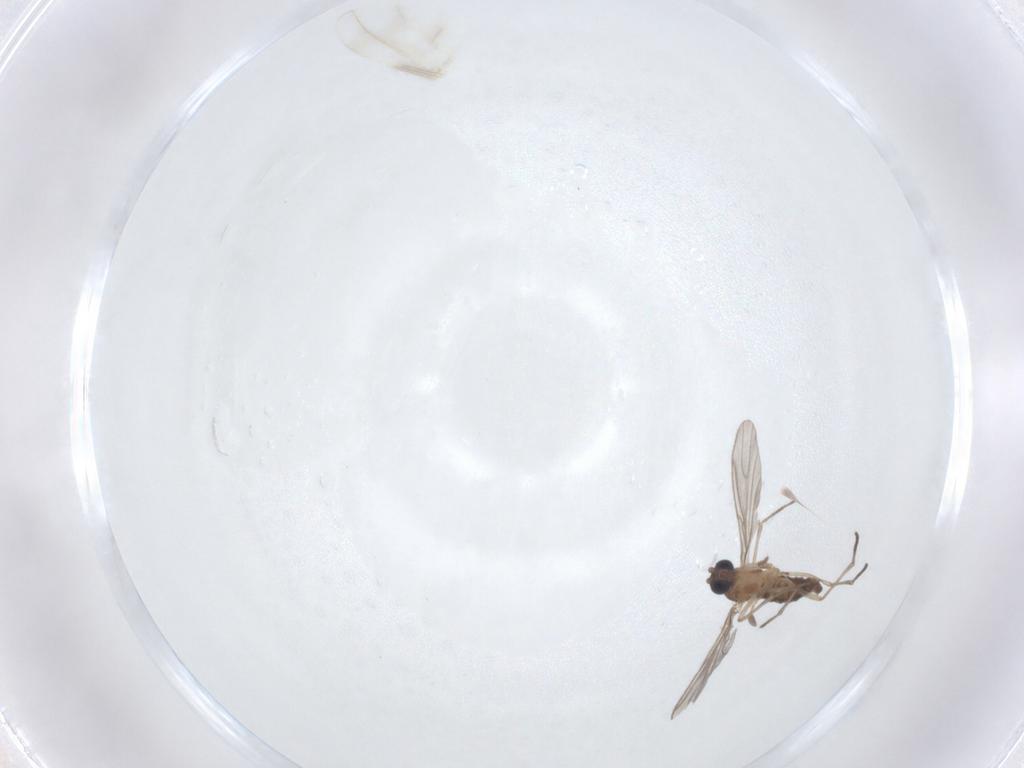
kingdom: Animalia
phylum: Arthropoda
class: Insecta
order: Diptera
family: Sciaridae
